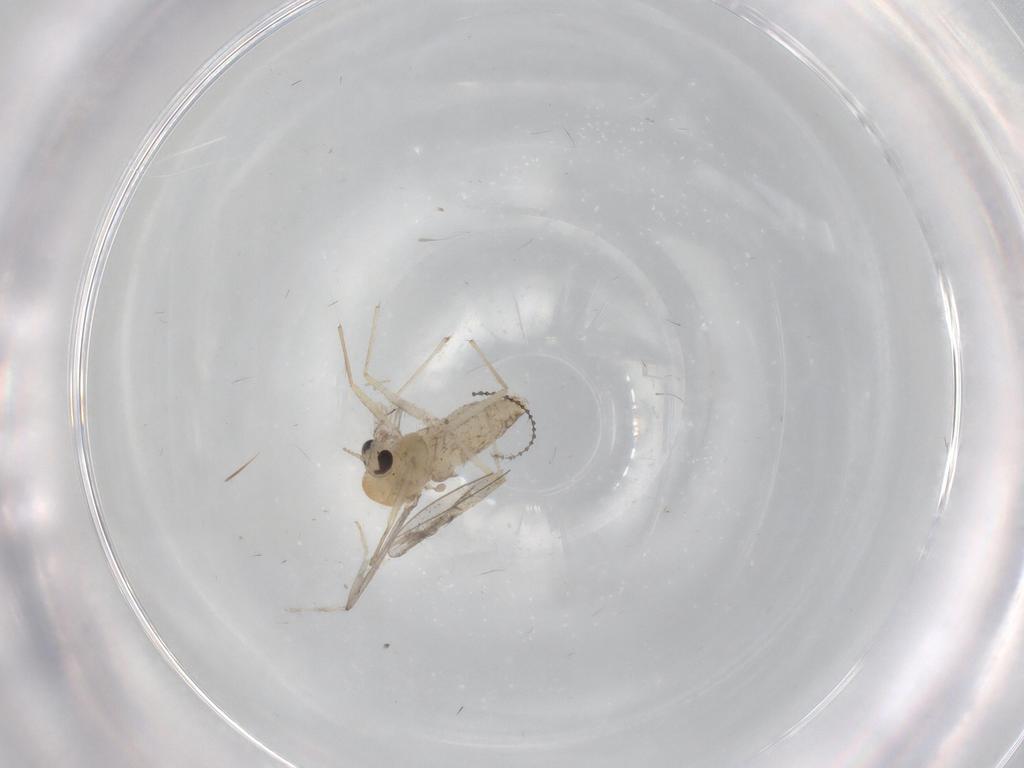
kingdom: Animalia
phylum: Arthropoda
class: Insecta
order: Diptera
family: Chironomidae
